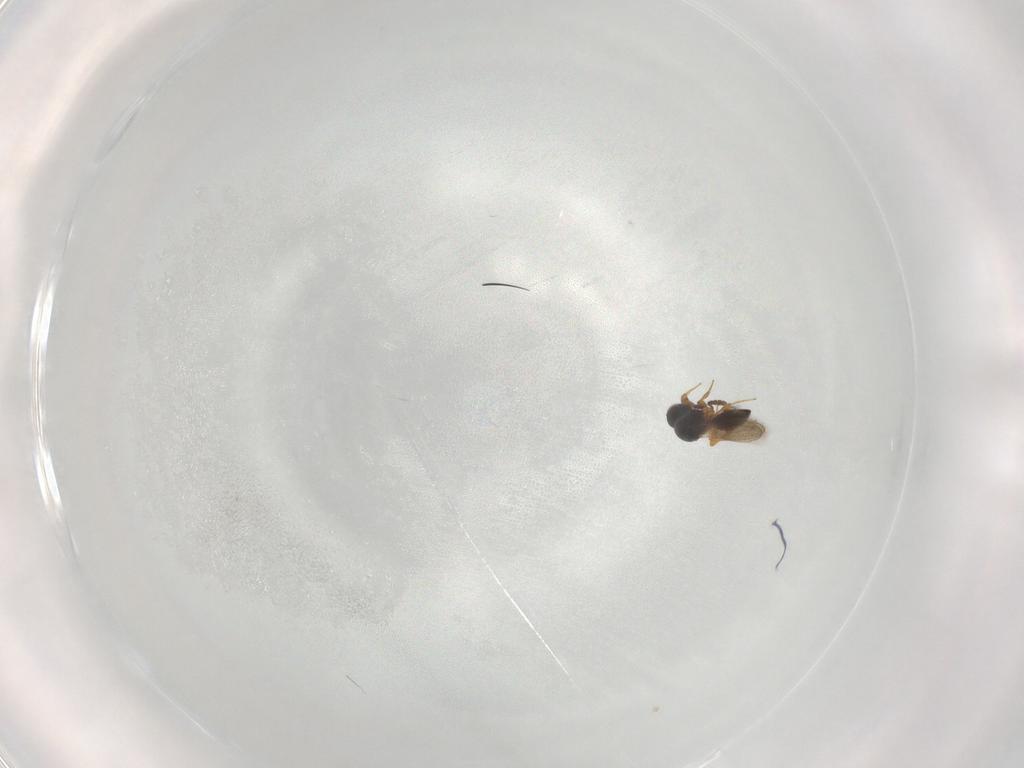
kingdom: Animalia
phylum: Arthropoda
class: Insecta
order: Hymenoptera
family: Platygastridae
